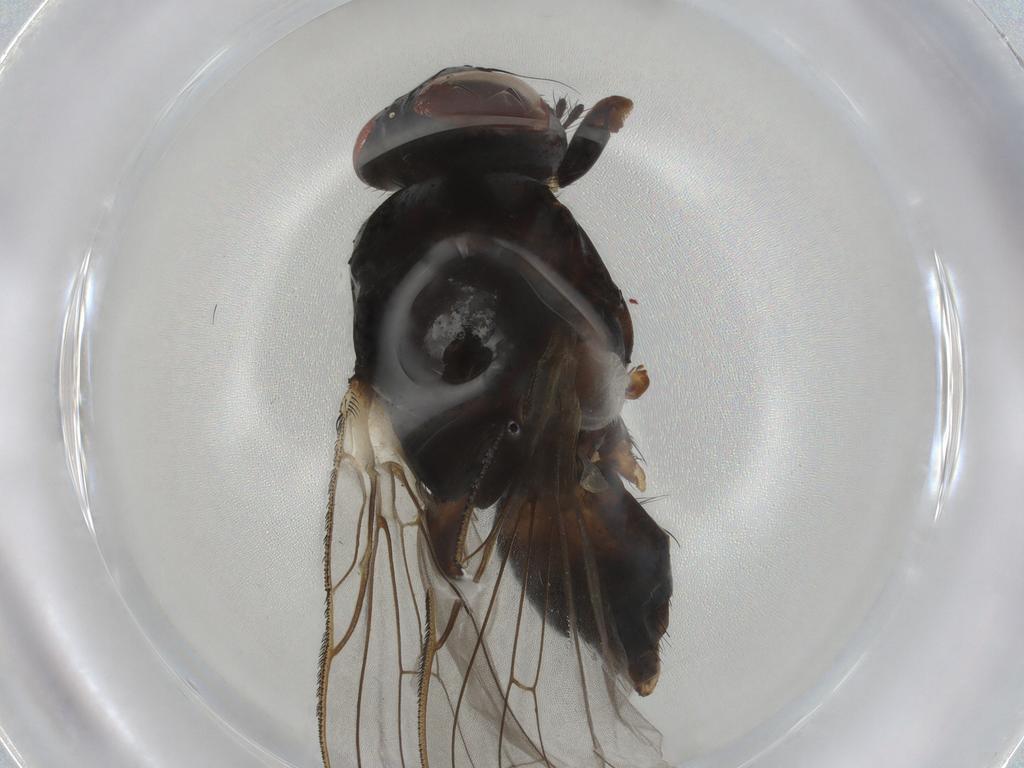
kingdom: Animalia
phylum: Arthropoda
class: Insecta
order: Diptera
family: Anthomyiidae
